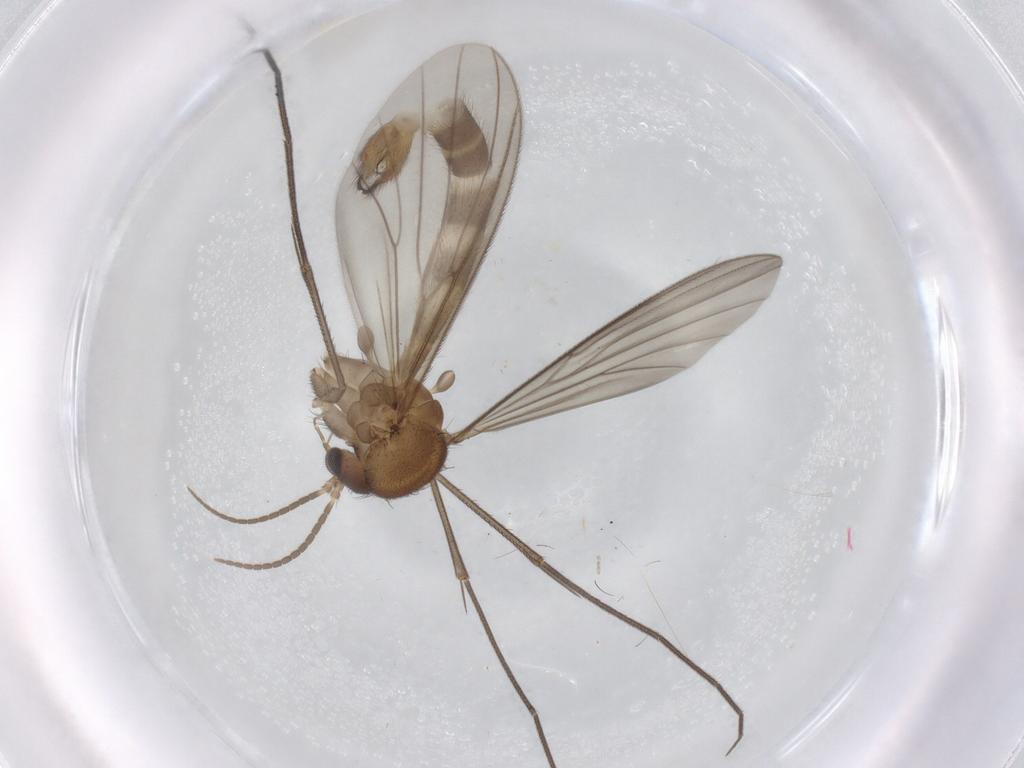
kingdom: Animalia
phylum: Arthropoda
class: Insecta
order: Diptera
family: Mycetophilidae
